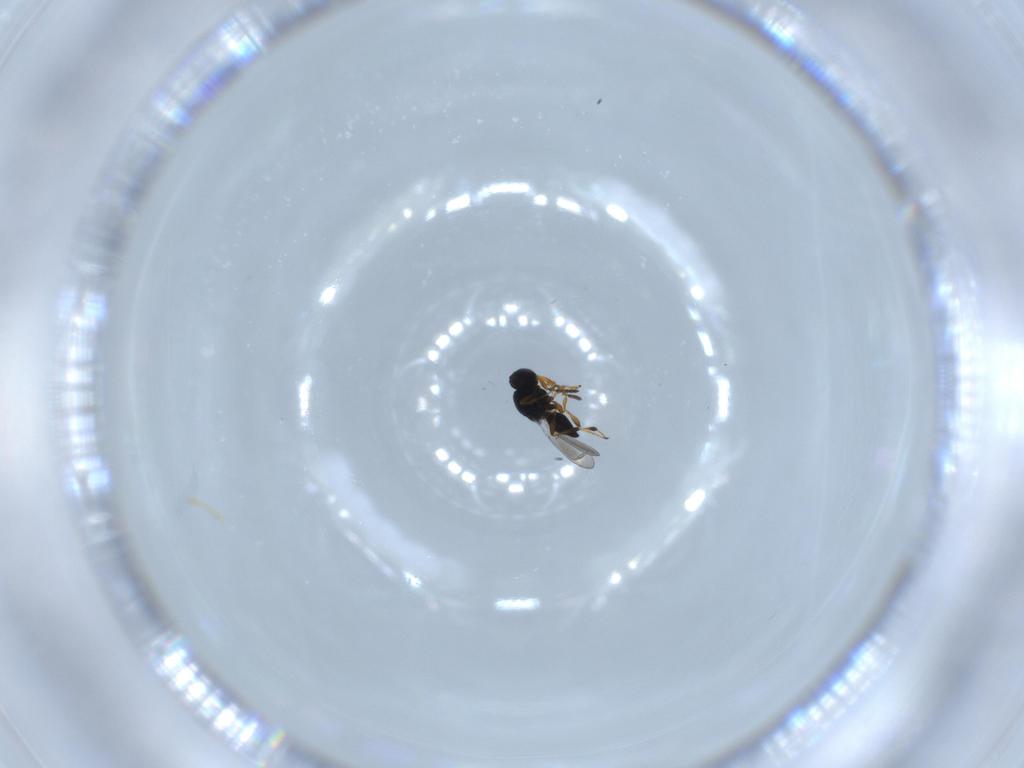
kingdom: Animalia
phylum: Arthropoda
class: Insecta
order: Hymenoptera
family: Platygastridae
